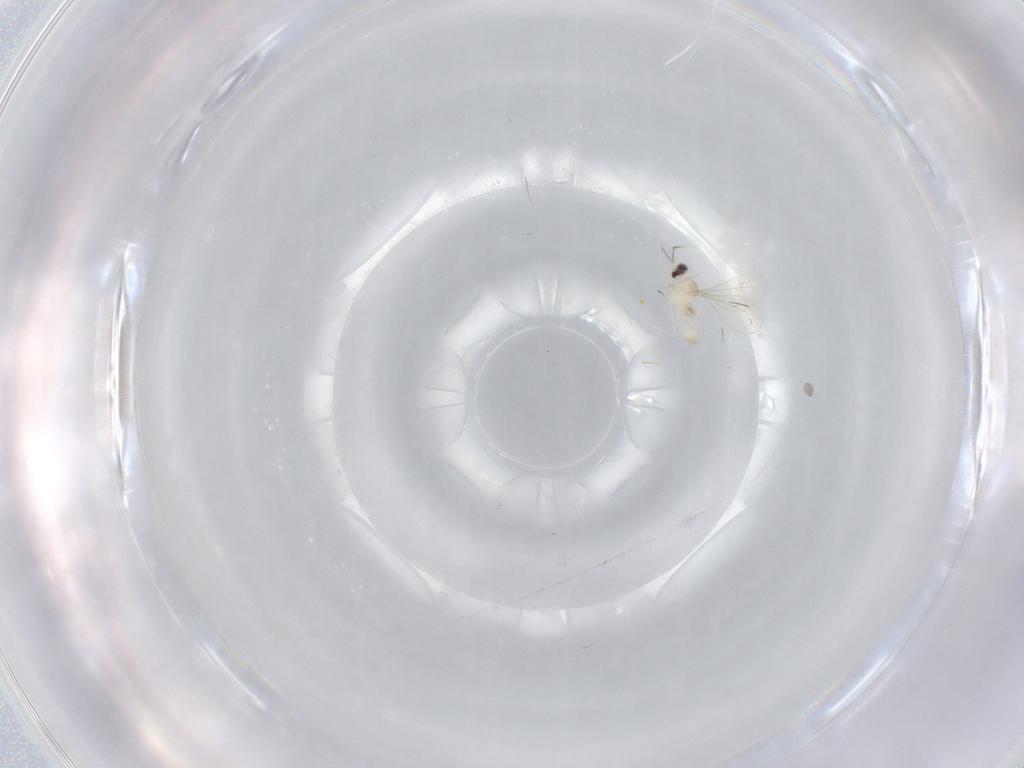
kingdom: Animalia
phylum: Arthropoda
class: Insecta
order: Diptera
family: Cecidomyiidae
